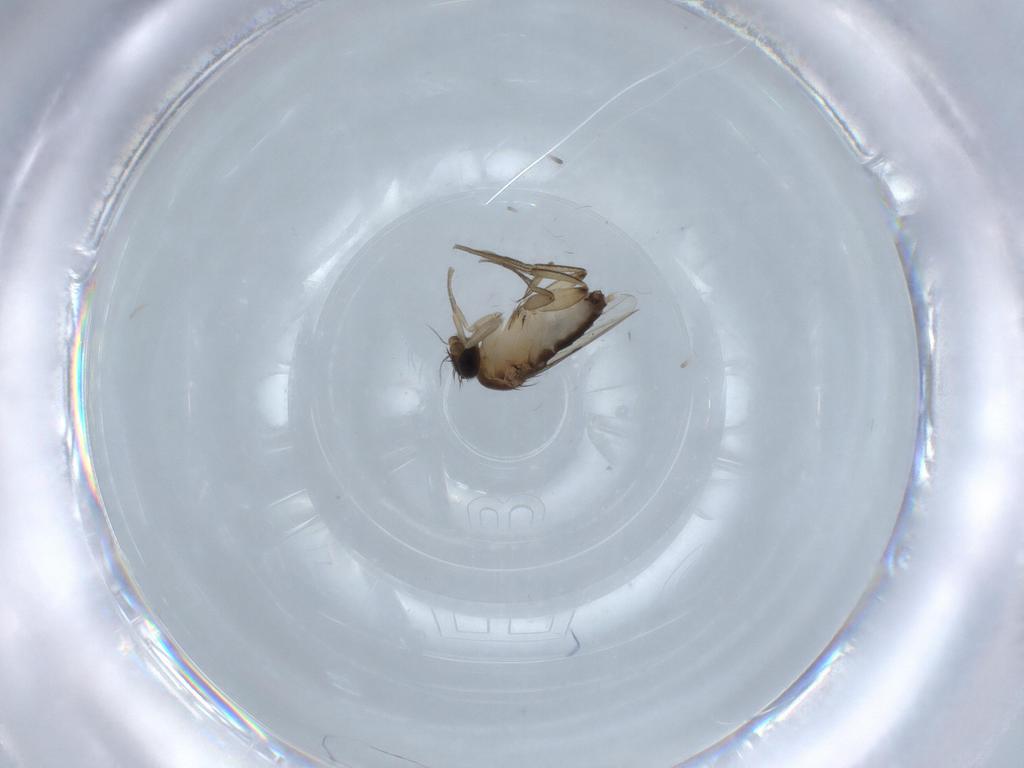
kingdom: Animalia
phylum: Arthropoda
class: Insecta
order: Diptera
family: Phoridae
